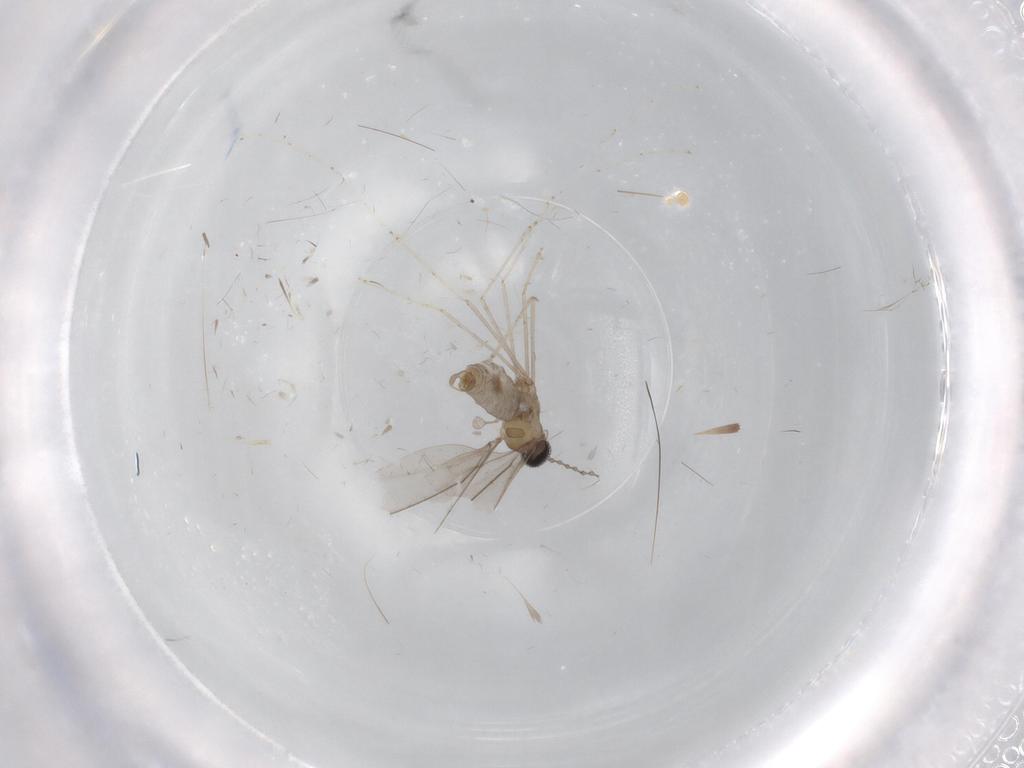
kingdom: Animalia
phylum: Arthropoda
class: Insecta
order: Diptera
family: Cecidomyiidae
